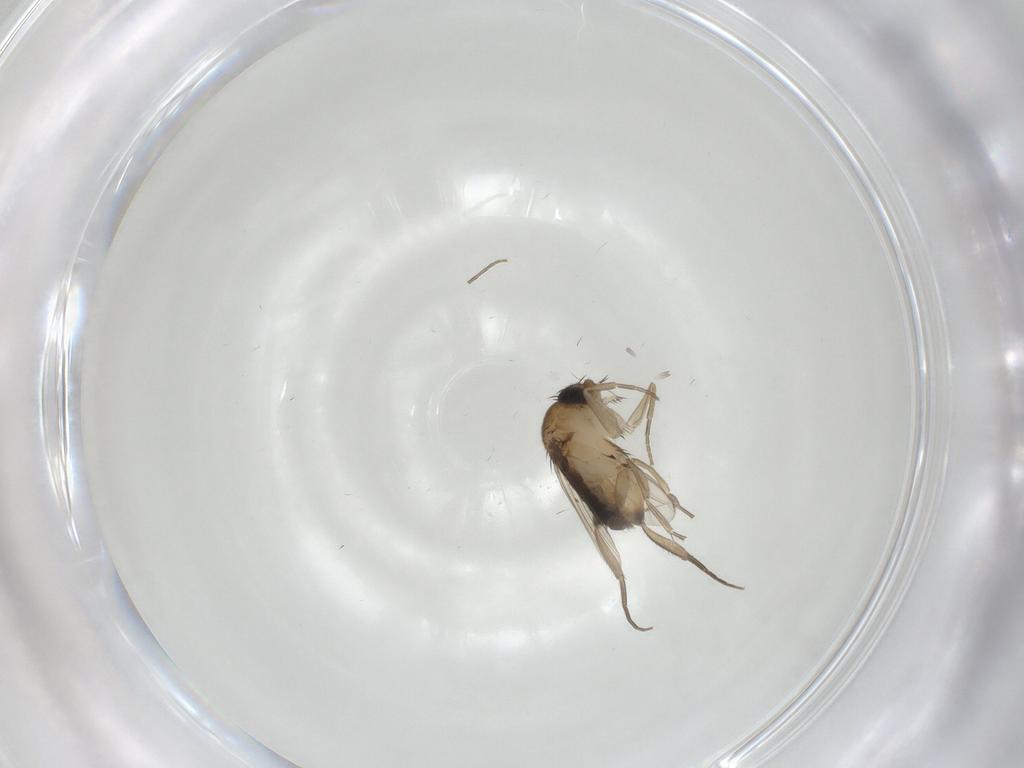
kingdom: Animalia
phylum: Arthropoda
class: Insecta
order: Diptera
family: Phoridae
